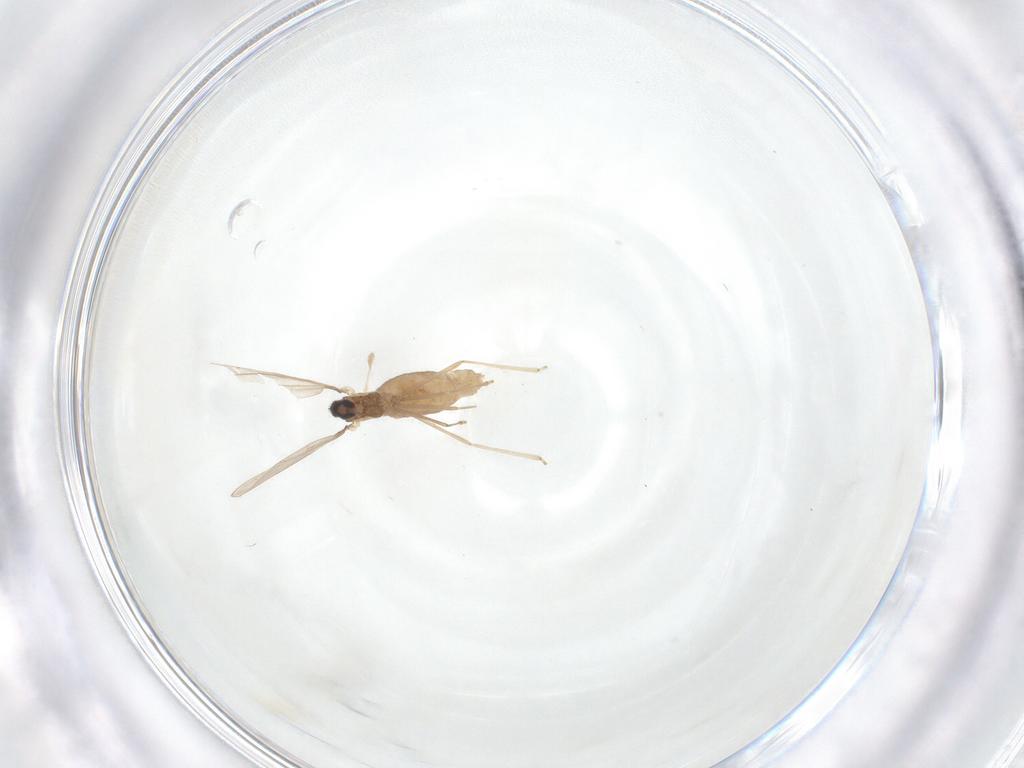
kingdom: Animalia
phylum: Arthropoda
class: Insecta
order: Diptera
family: Cecidomyiidae
